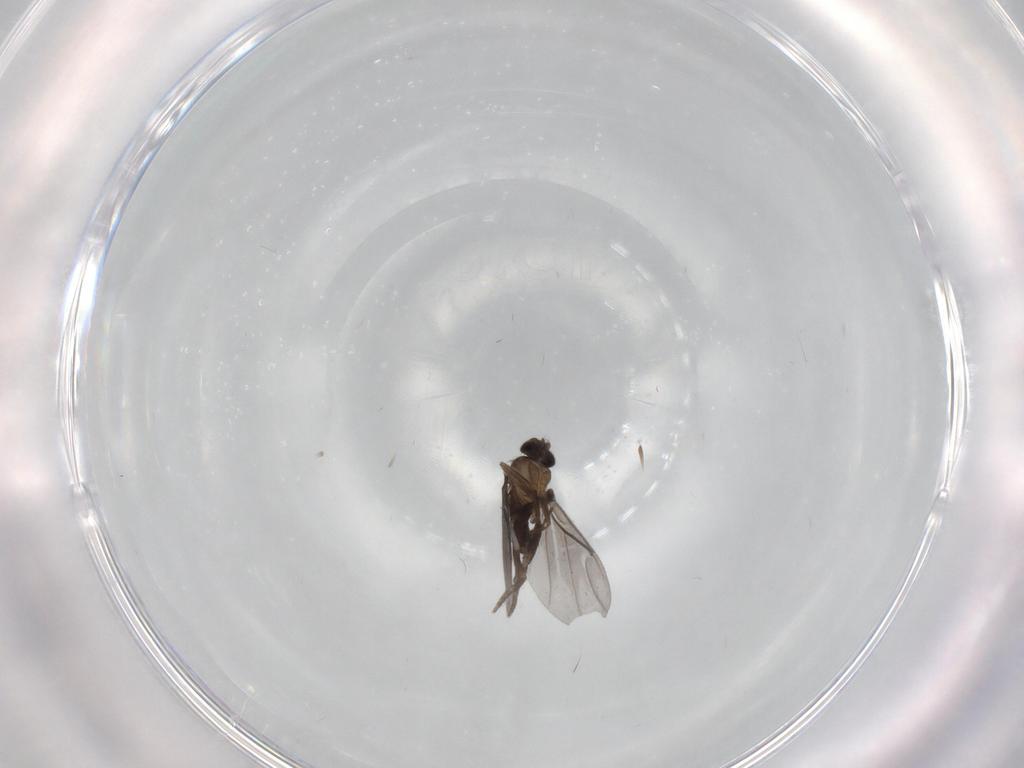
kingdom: Animalia
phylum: Arthropoda
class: Insecta
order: Diptera
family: Phoridae
